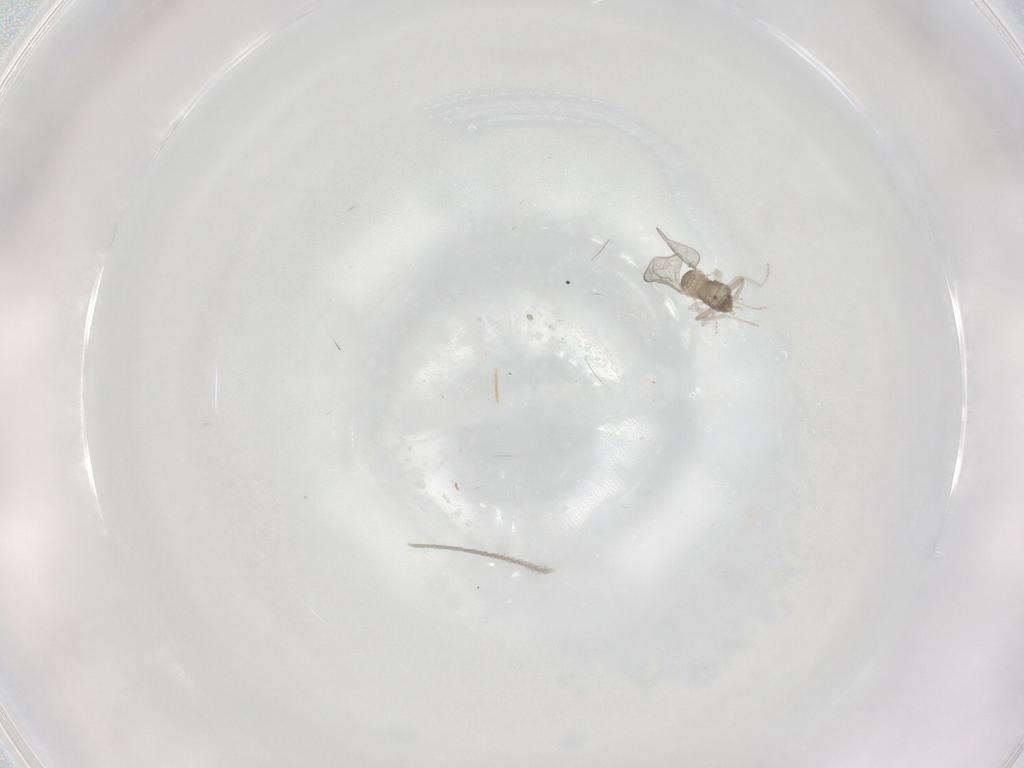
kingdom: Animalia
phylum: Arthropoda
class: Insecta
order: Diptera
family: Cecidomyiidae
